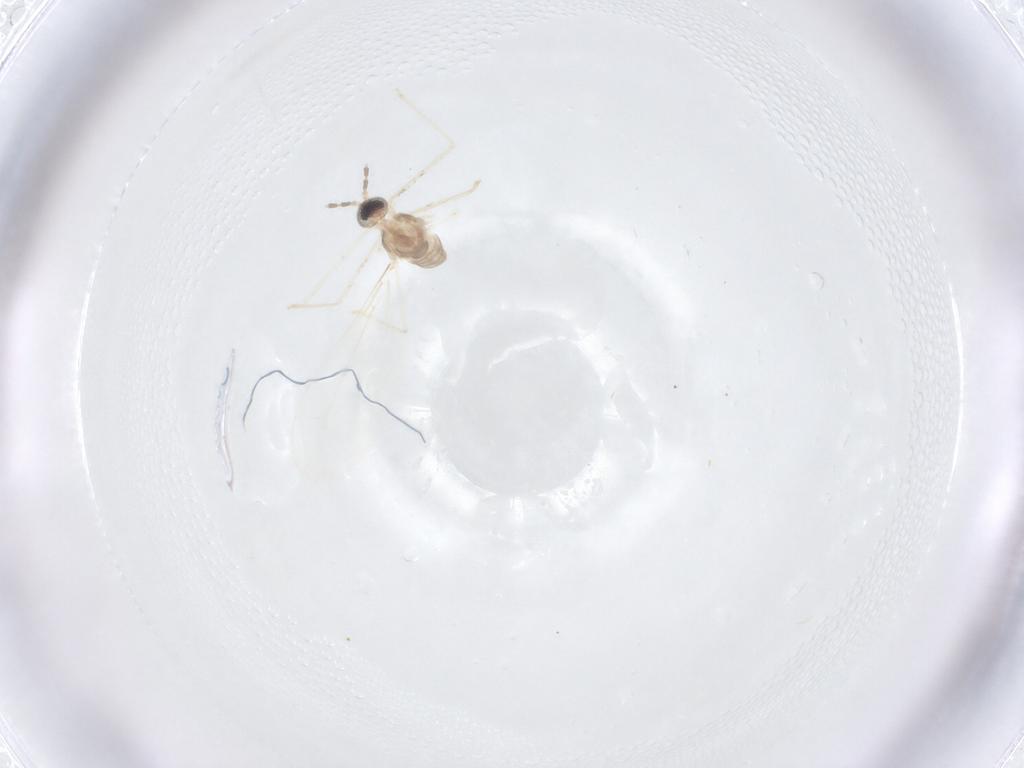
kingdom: Animalia
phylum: Arthropoda
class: Insecta
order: Diptera
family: Cecidomyiidae
